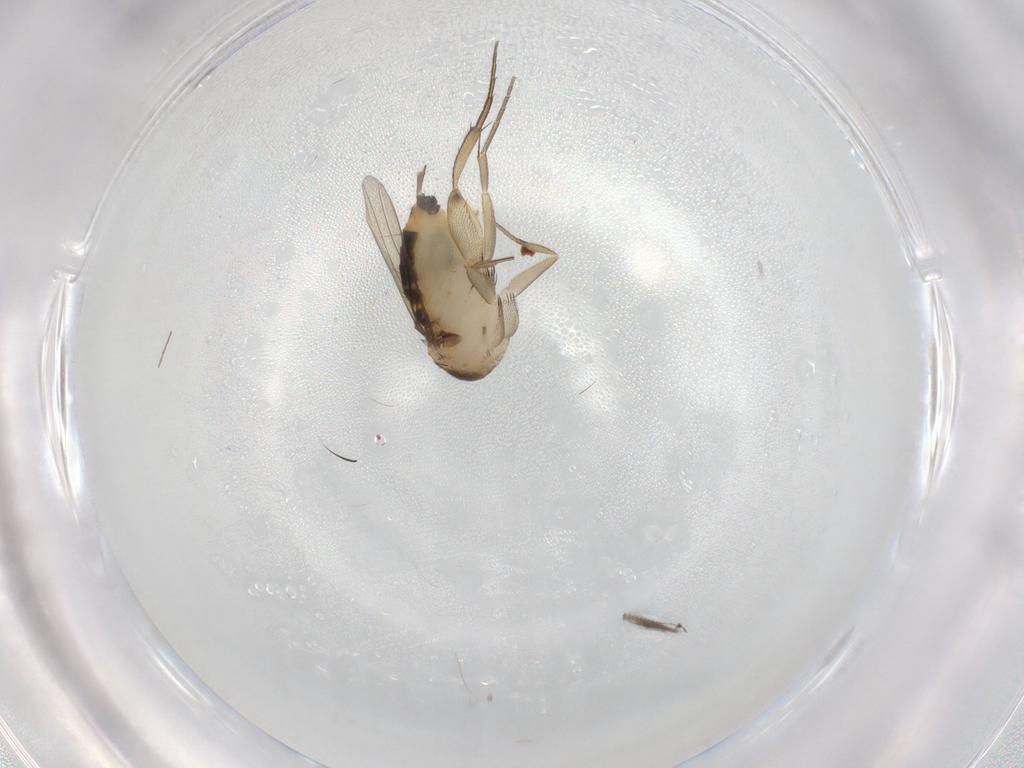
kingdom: Animalia
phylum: Arthropoda
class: Insecta
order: Diptera
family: Phoridae
